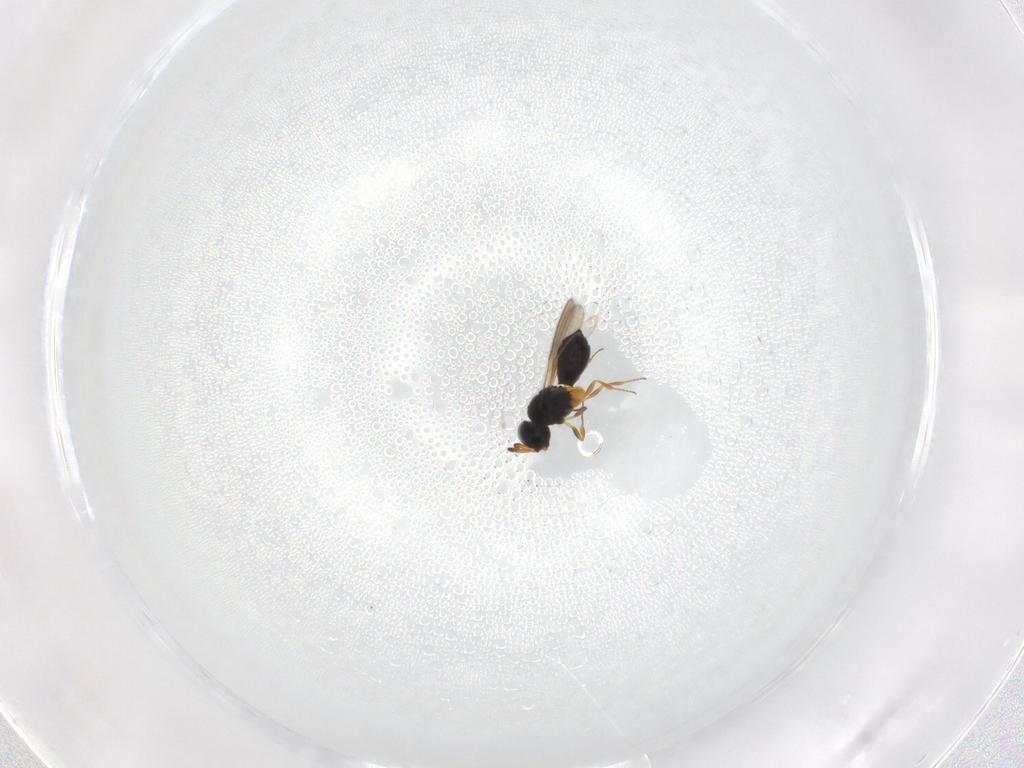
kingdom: Animalia
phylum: Arthropoda
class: Insecta
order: Hymenoptera
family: Scelionidae
